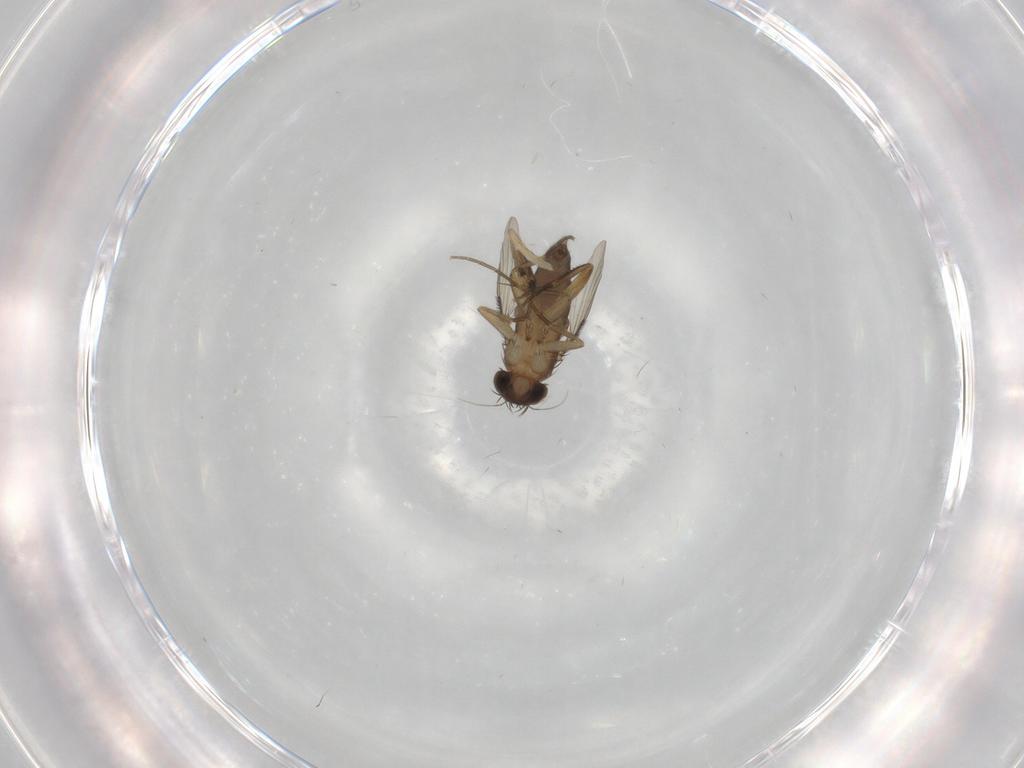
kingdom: Animalia
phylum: Arthropoda
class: Insecta
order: Diptera
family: Phoridae
